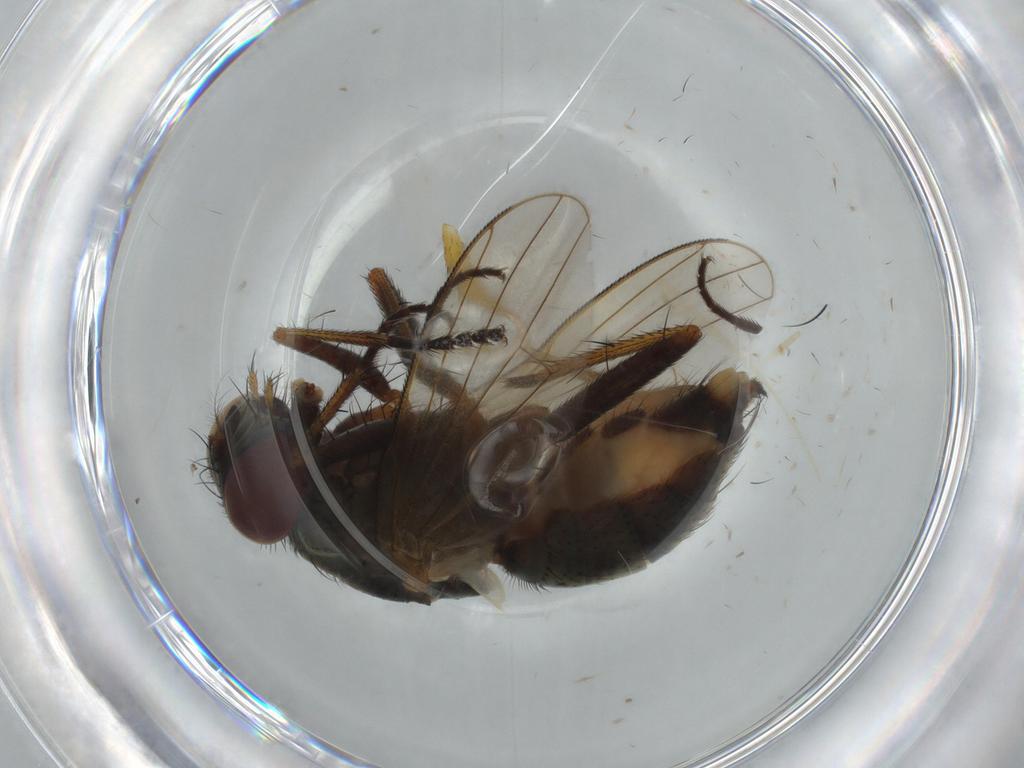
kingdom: Animalia
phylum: Arthropoda
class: Insecta
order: Diptera
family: Muscidae
